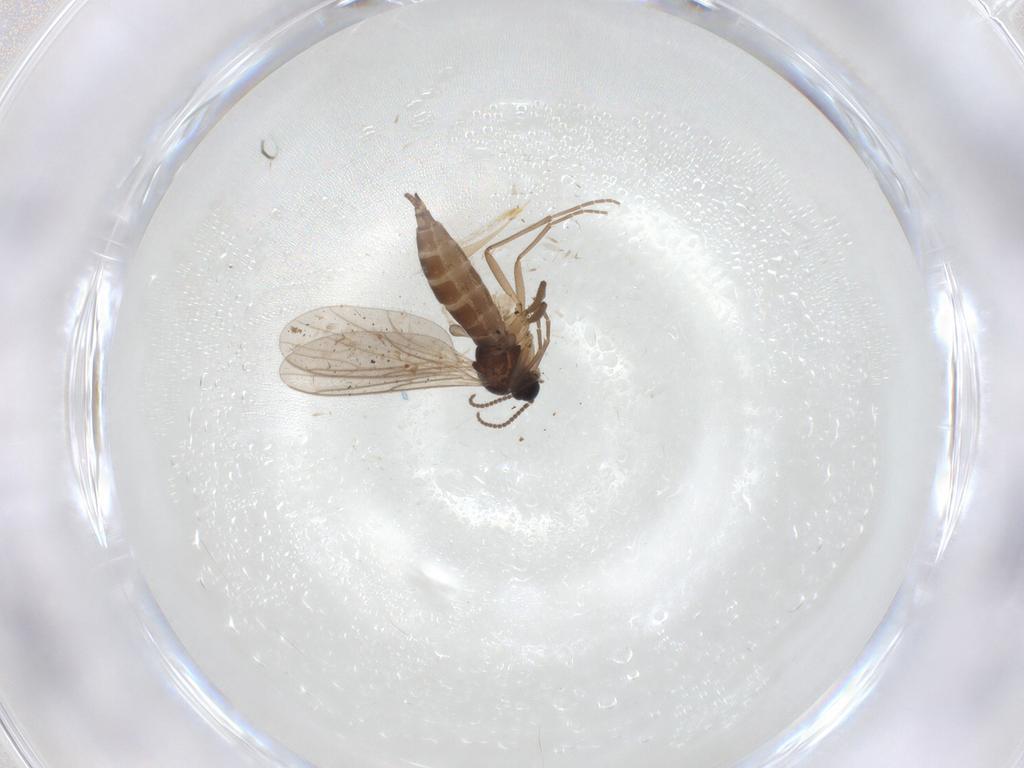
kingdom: Animalia
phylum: Arthropoda
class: Insecta
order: Diptera
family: Sciaridae
